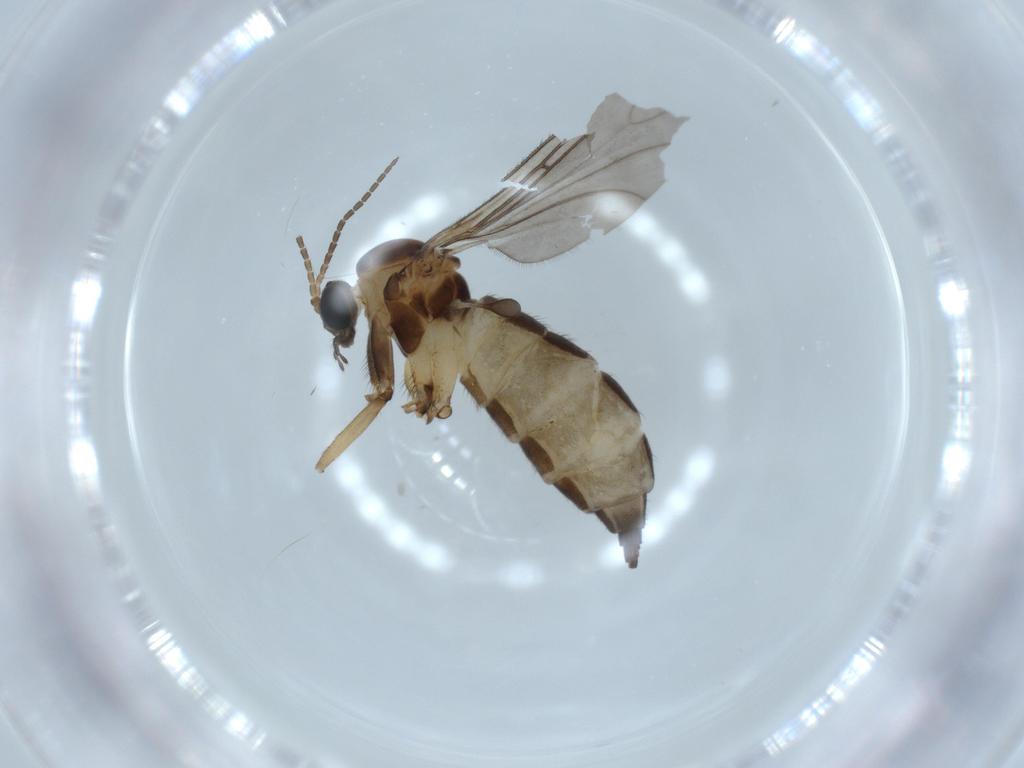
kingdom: Animalia
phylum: Arthropoda
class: Insecta
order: Diptera
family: Sciaridae
